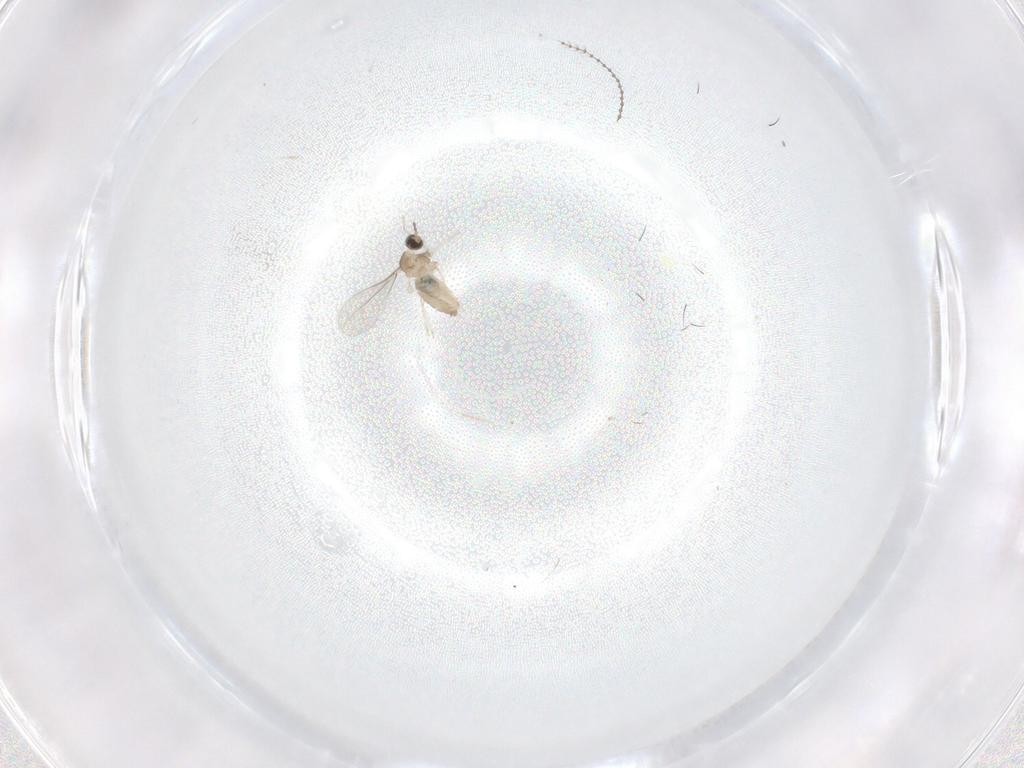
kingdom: Animalia
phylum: Arthropoda
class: Insecta
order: Diptera
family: Cecidomyiidae
